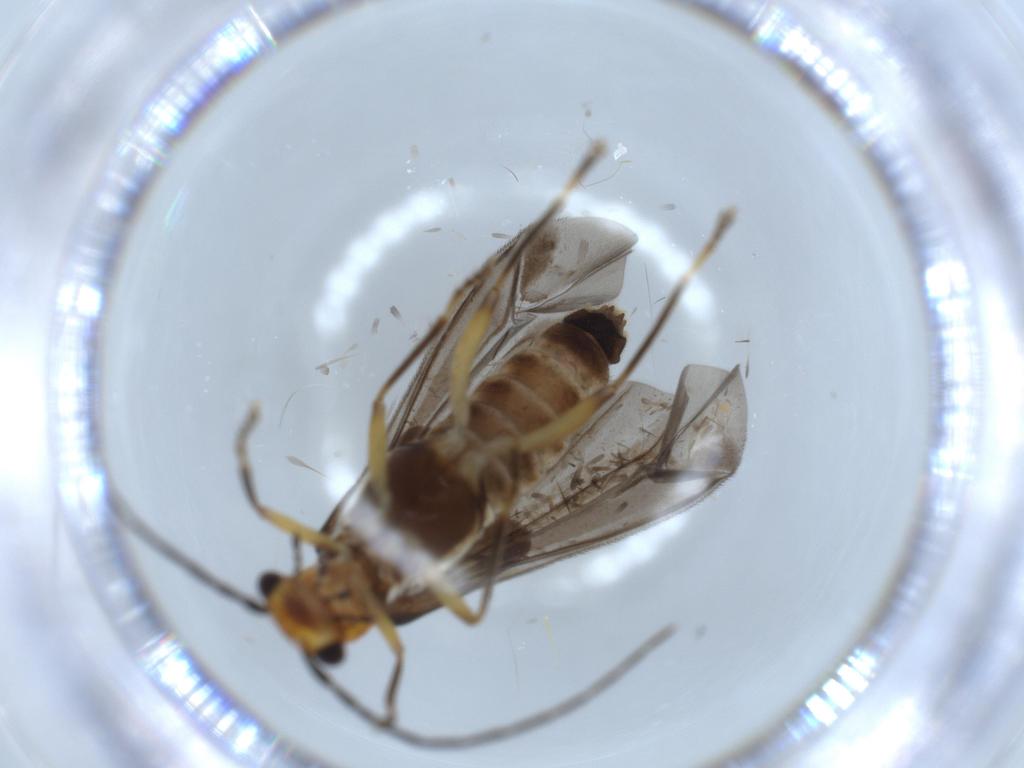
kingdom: Animalia
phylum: Arthropoda
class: Insecta
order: Coleoptera
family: Cantharidae
